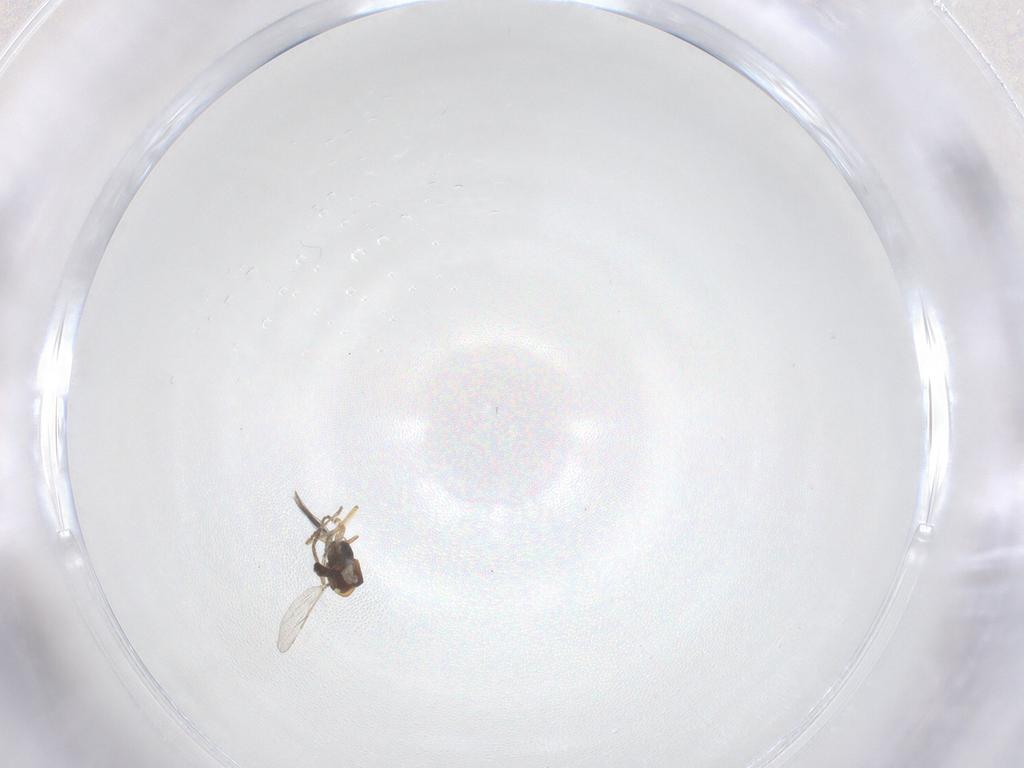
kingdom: Animalia
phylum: Arthropoda
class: Insecta
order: Diptera
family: Ceratopogonidae
